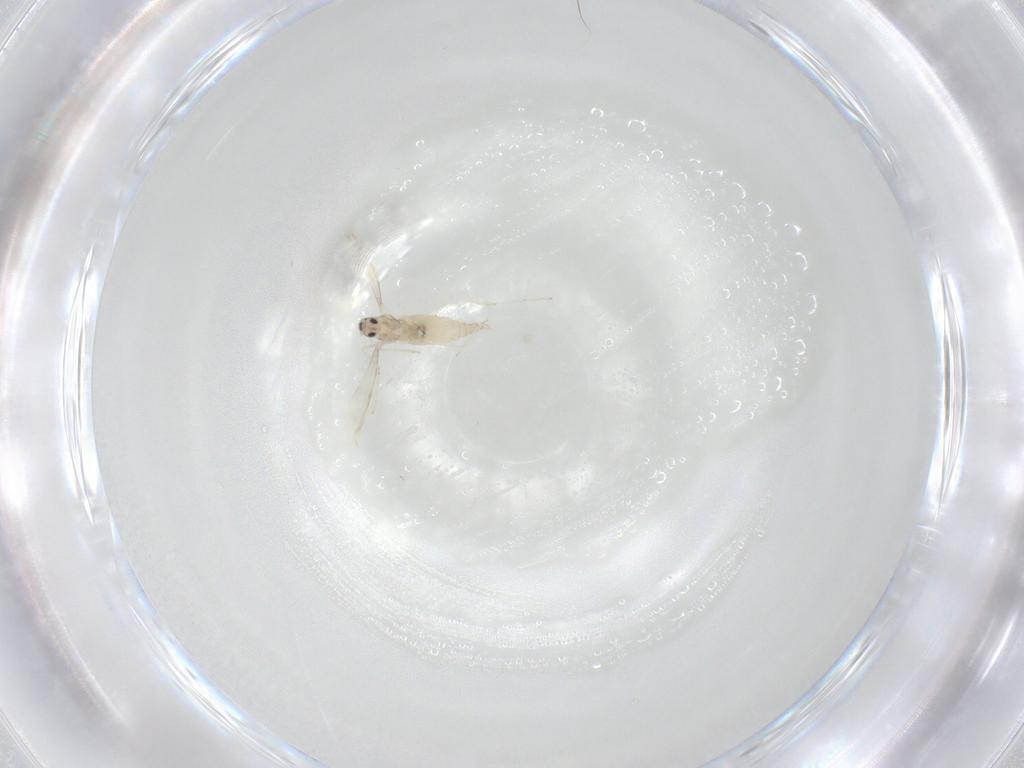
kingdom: Animalia
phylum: Arthropoda
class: Insecta
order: Diptera
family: Cecidomyiidae
